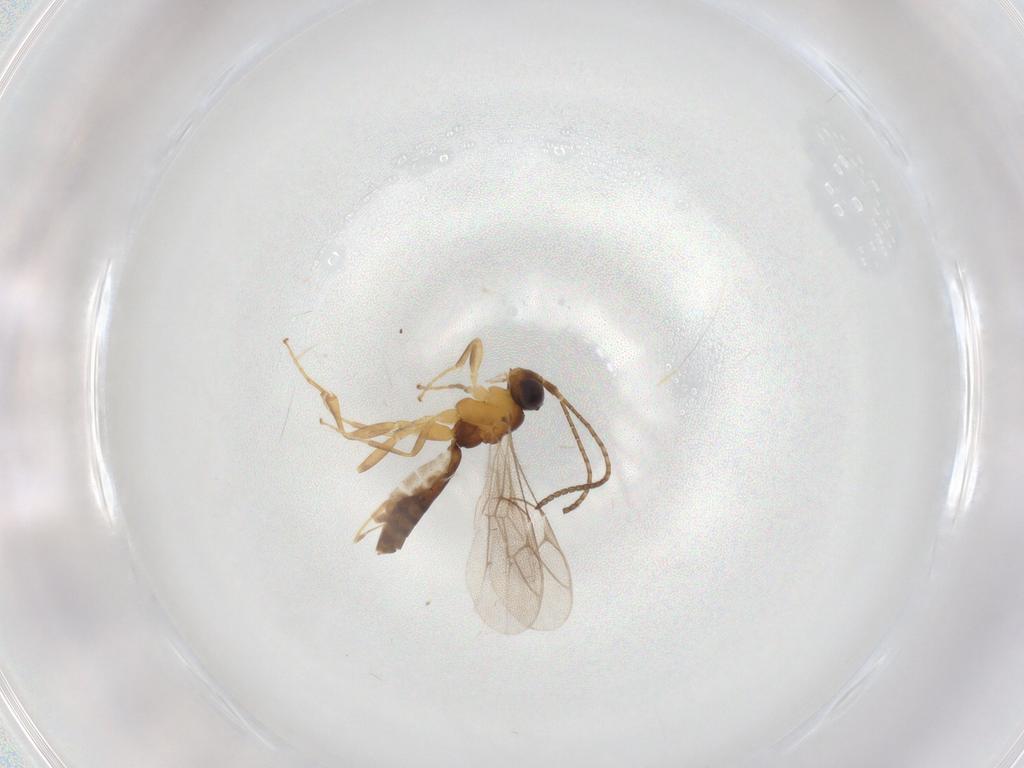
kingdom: Animalia
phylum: Arthropoda
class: Insecta
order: Hymenoptera
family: Ichneumonidae
